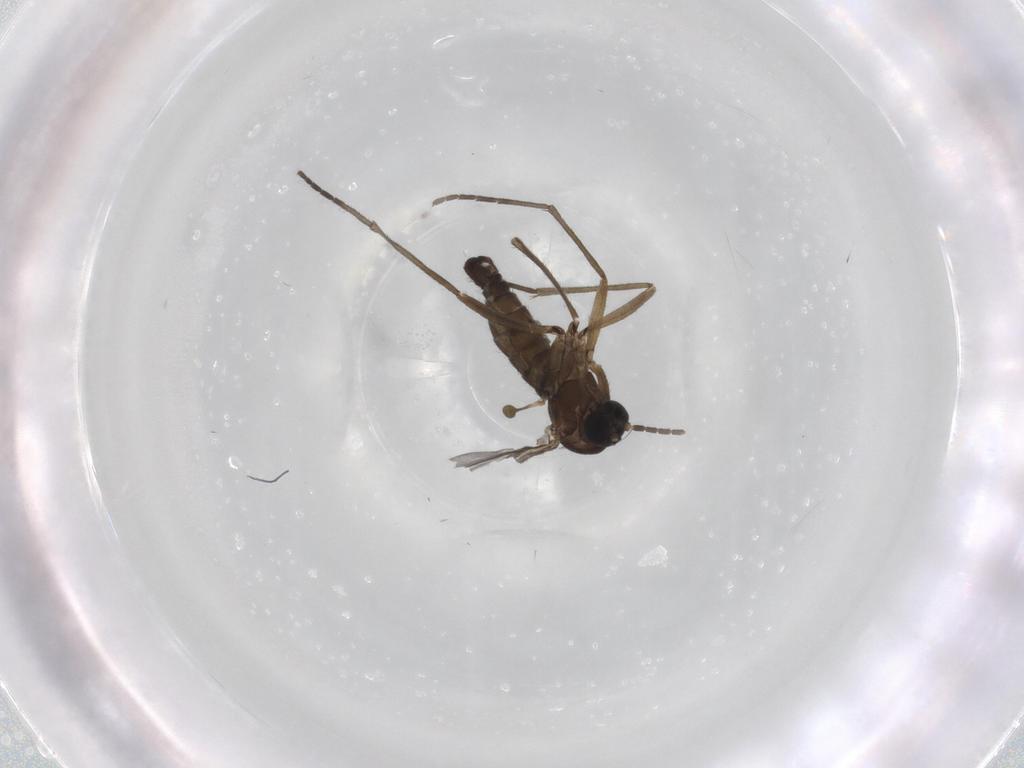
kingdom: Animalia
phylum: Arthropoda
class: Insecta
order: Diptera
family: Sciaridae
